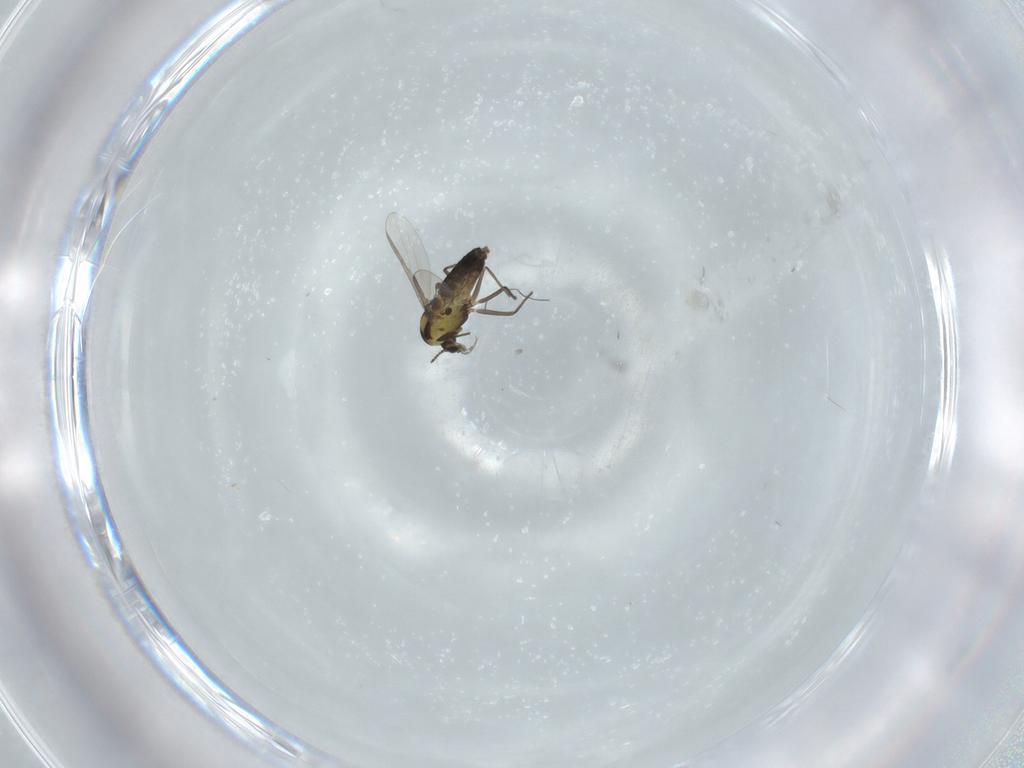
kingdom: Animalia
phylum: Arthropoda
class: Insecta
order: Diptera
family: Chironomidae
